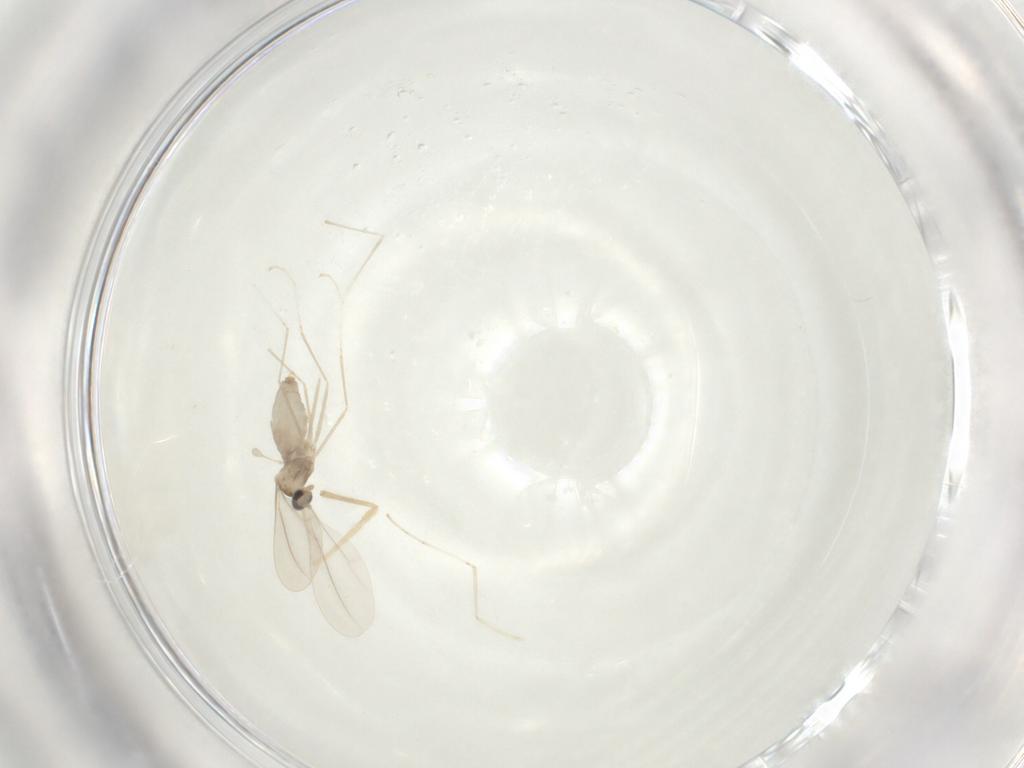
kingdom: Animalia
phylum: Arthropoda
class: Insecta
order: Diptera
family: Cecidomyiidae
